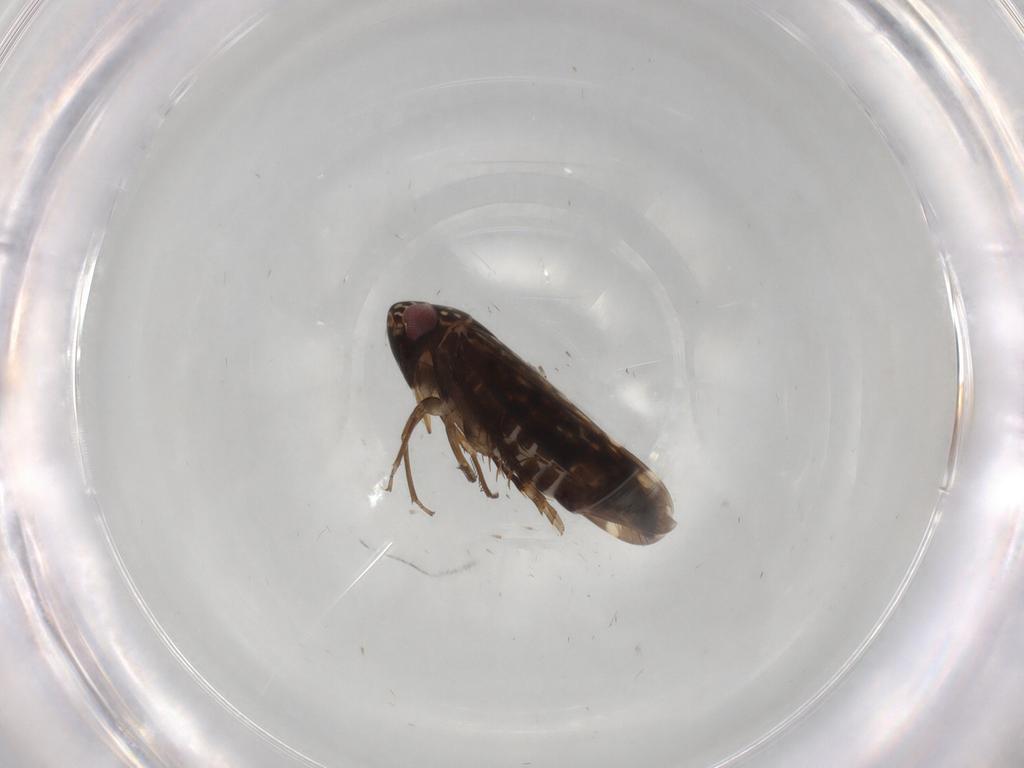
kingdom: Animalia
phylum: Arthropoda
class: Insecta
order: Hemiptera
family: Cicadellidae
